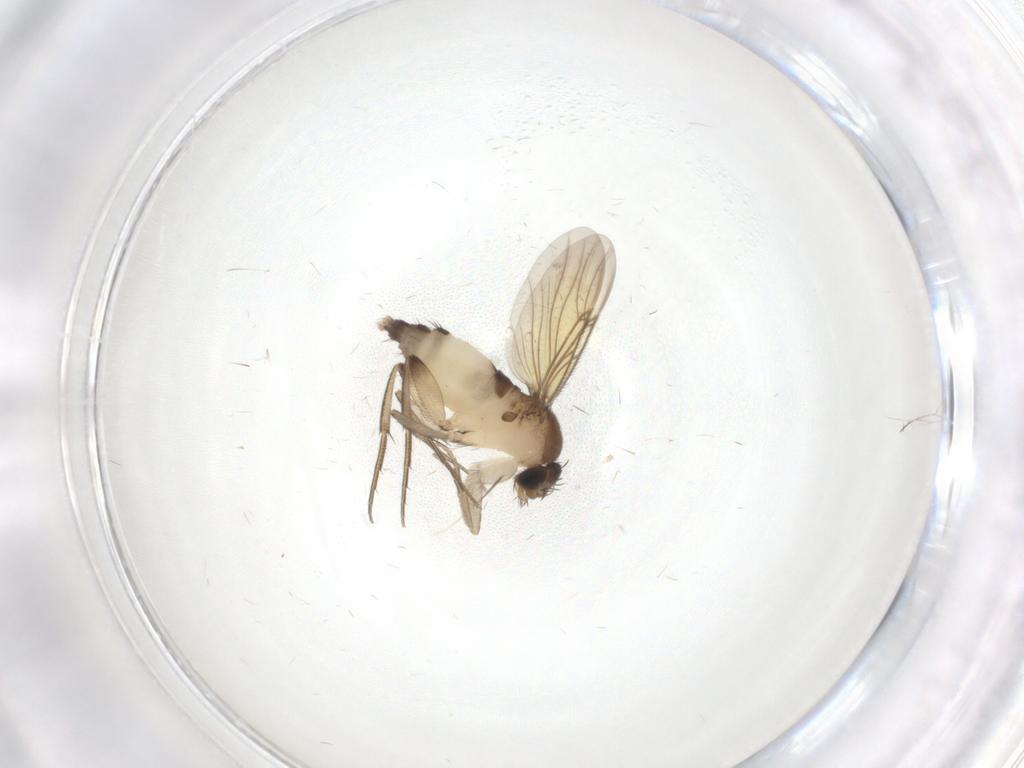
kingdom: Animalia
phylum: Arthropoda
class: Insecta
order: Diptera
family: Phoridae
